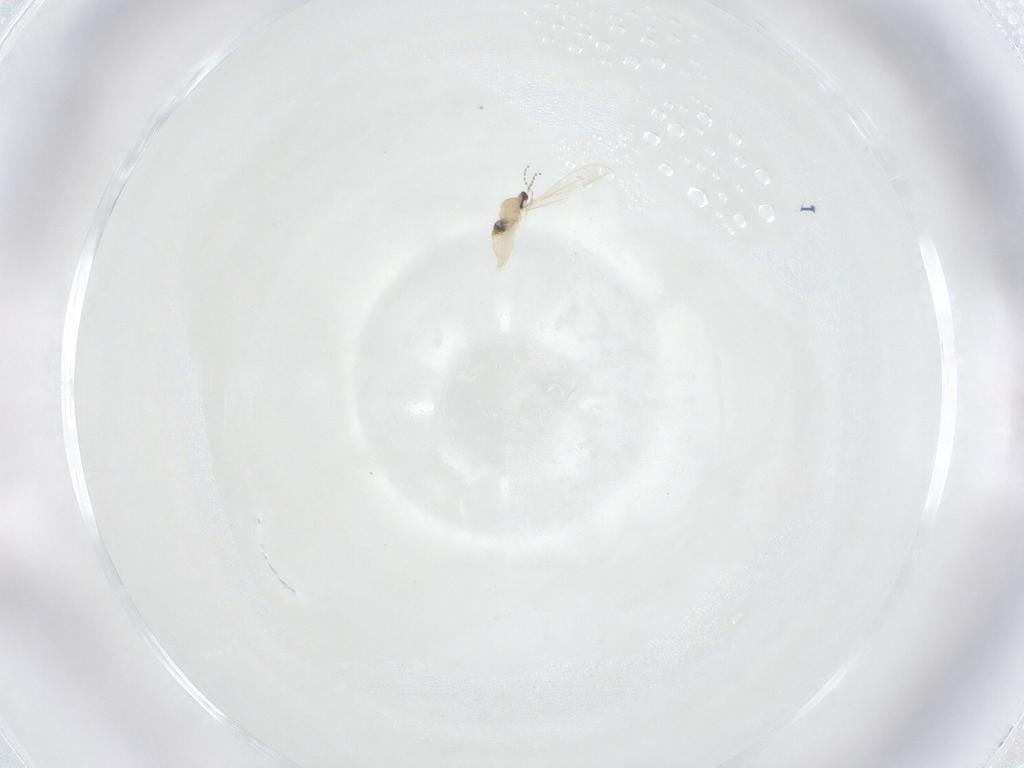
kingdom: Animalia
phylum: Arthropoda
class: Insecta
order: Diptera
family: Cecidomyiidae
